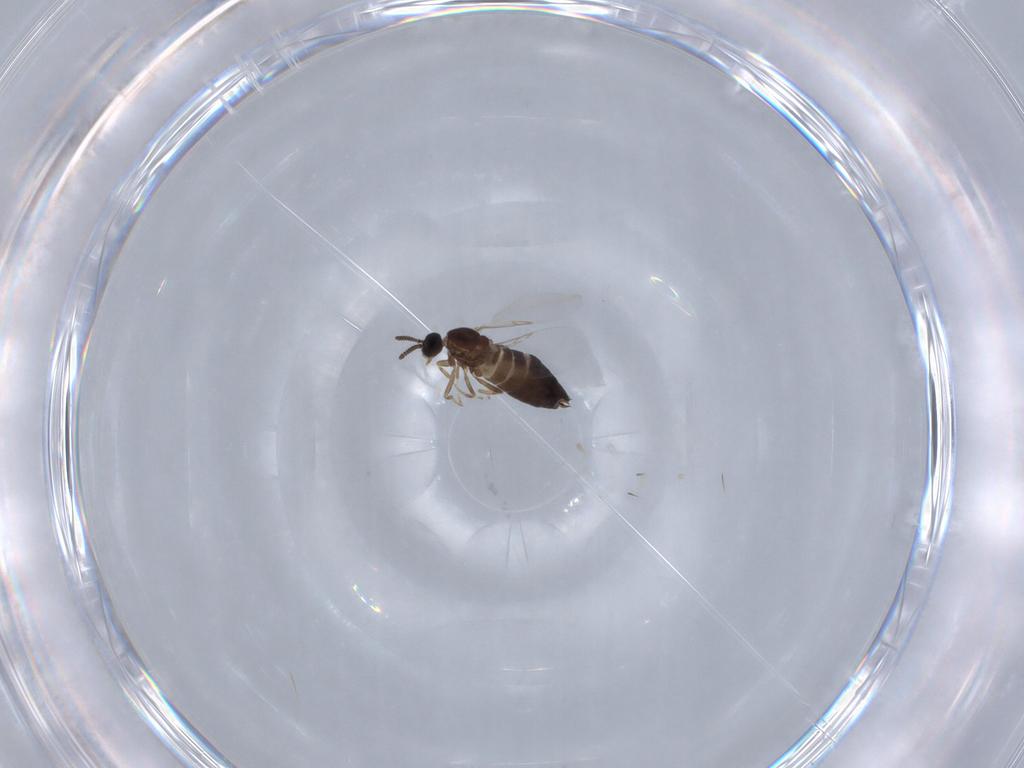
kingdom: Animalia
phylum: Arthropoda
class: Insecta
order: Diptera
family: Scatopsidae
